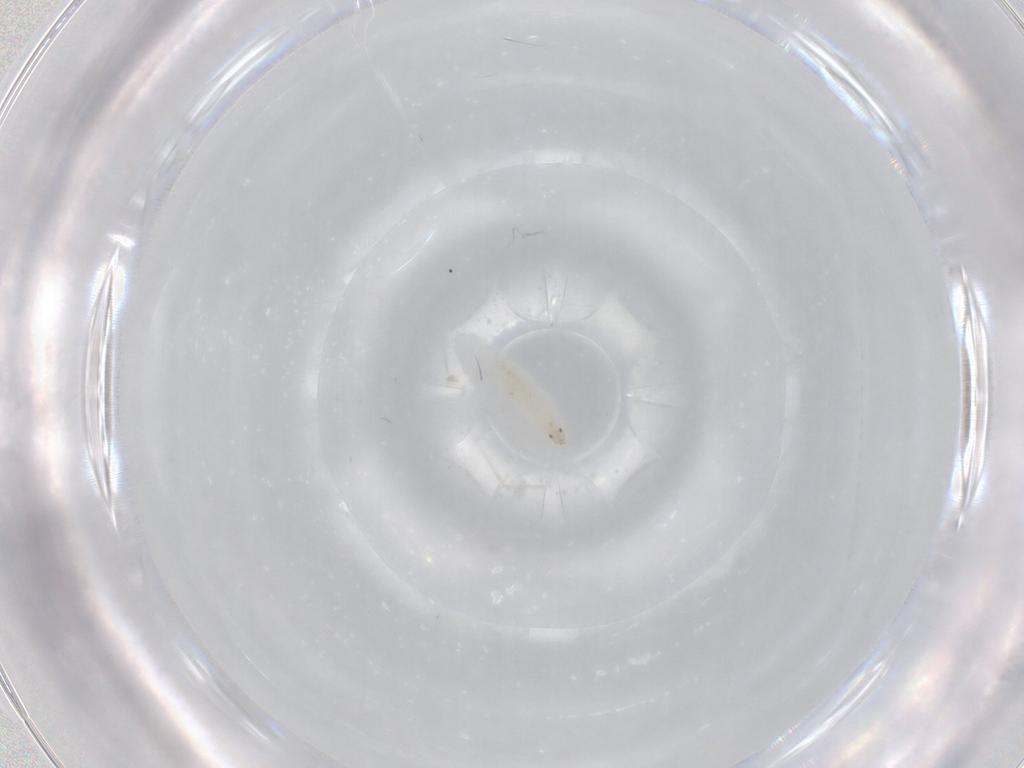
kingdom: Animalia
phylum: Arthropoda
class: Insecta
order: Diptera
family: Cecidomyiidae
